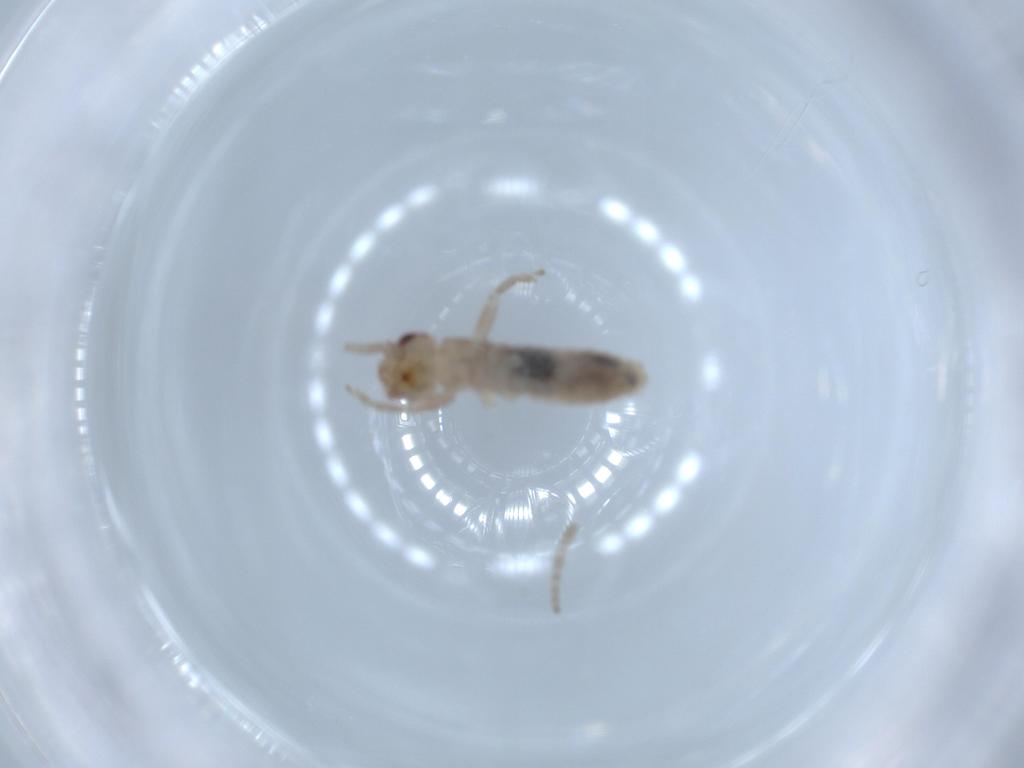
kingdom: Animalia
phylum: Arthropoda
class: Insecta
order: Orthoptera
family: Mogoplistidae
